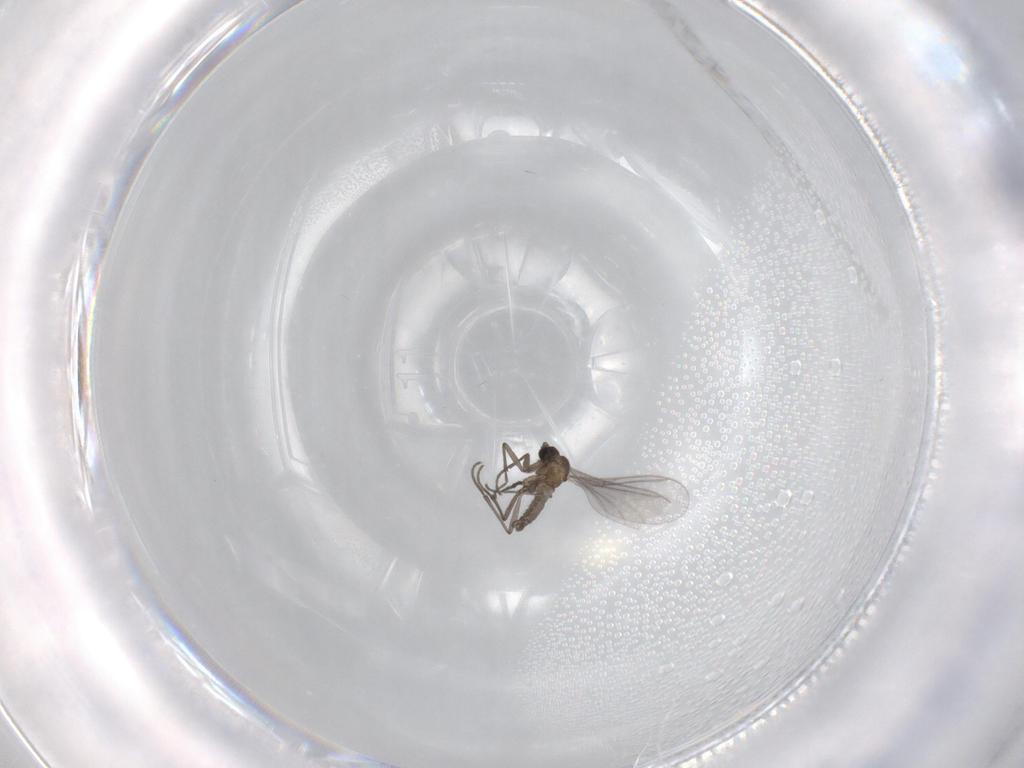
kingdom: Animalia
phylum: Arthropoda
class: Insecta
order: Diptera
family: Sciaridae
